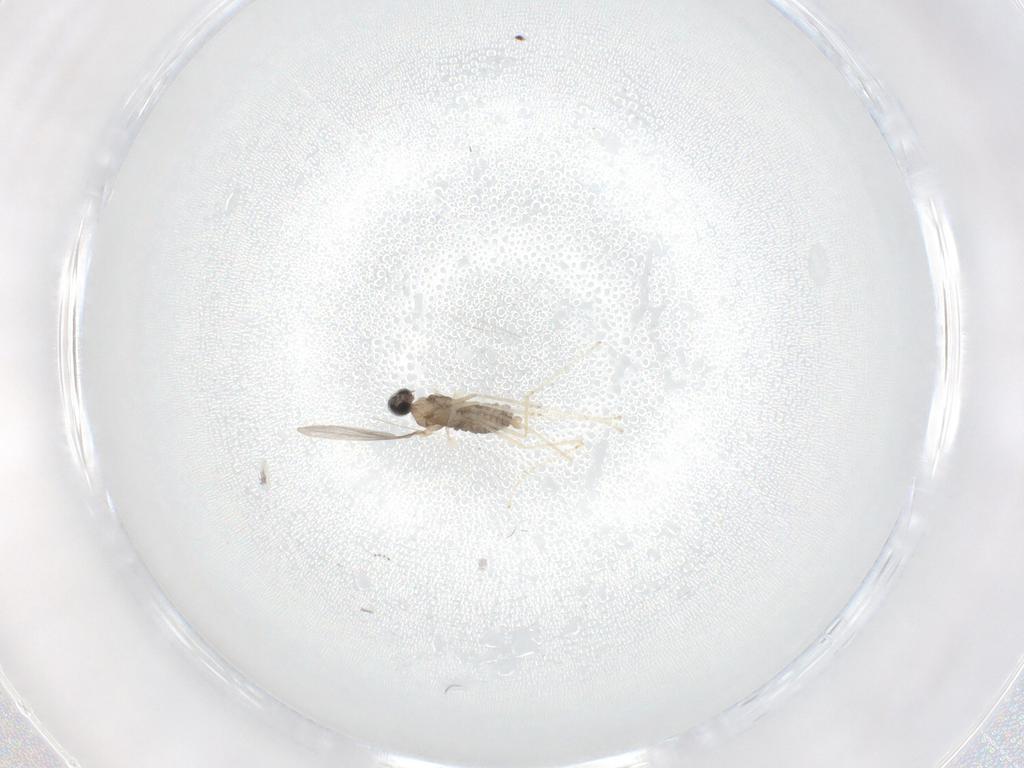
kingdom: Animalia
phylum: Arthropoda
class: Insecta
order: Diptera
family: Cecidomyiidae
